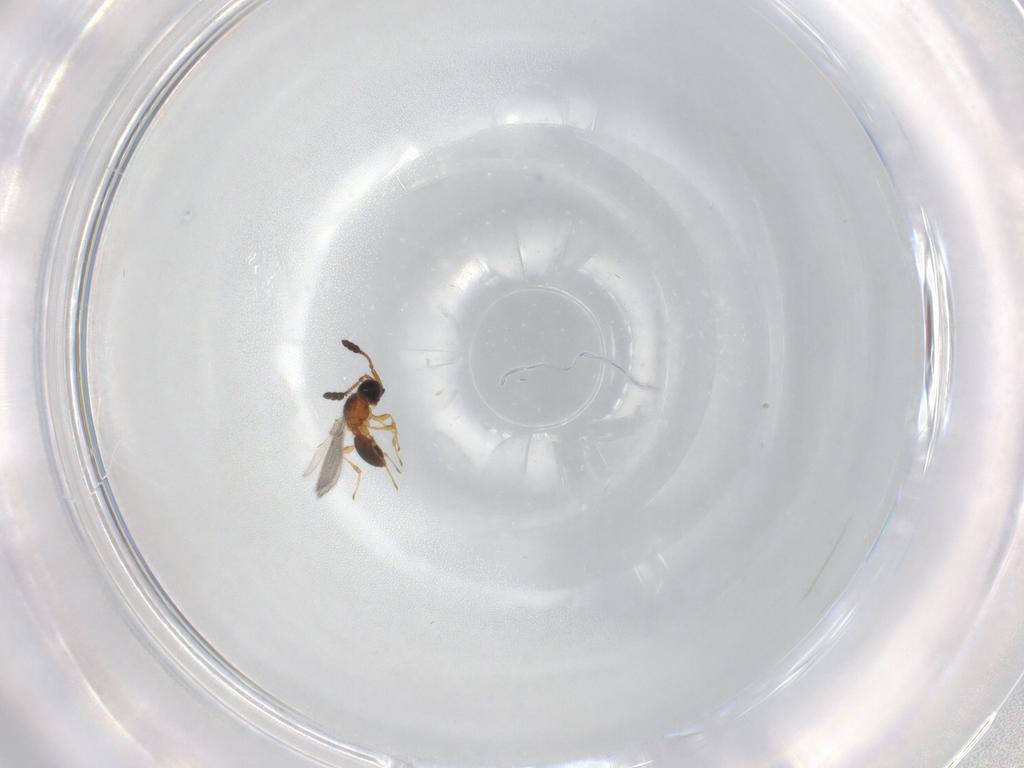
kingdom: Animalia
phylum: Arthropoda
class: Insecta
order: Hymenoptera
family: Diapriidae
